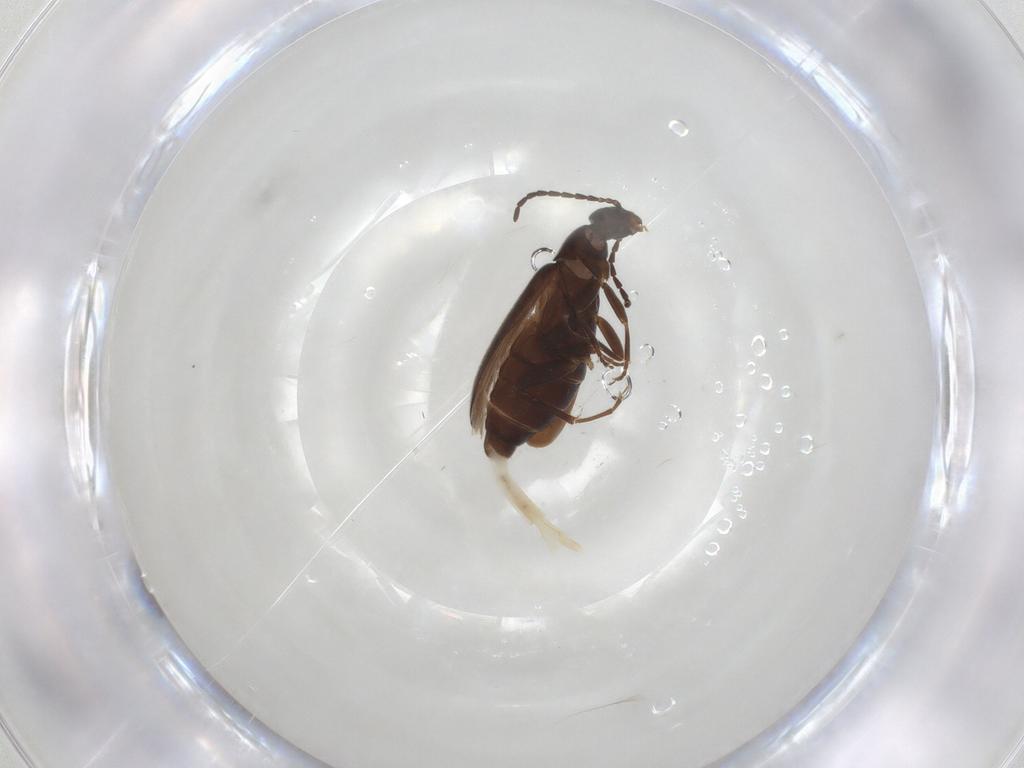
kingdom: Animalia
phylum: Arthropoda
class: Insecta
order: Coleoptera
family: Scraptiidae
